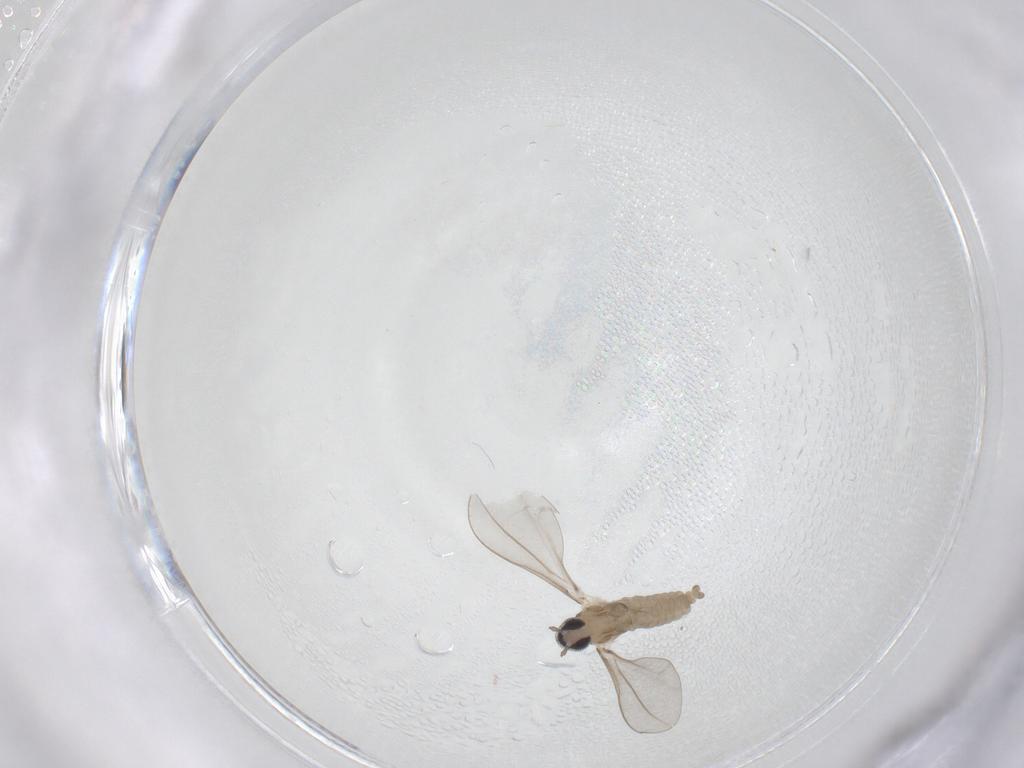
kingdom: Animalia
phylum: Arthropoda
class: Insecta
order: Diptera
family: Cecidomyiidae
